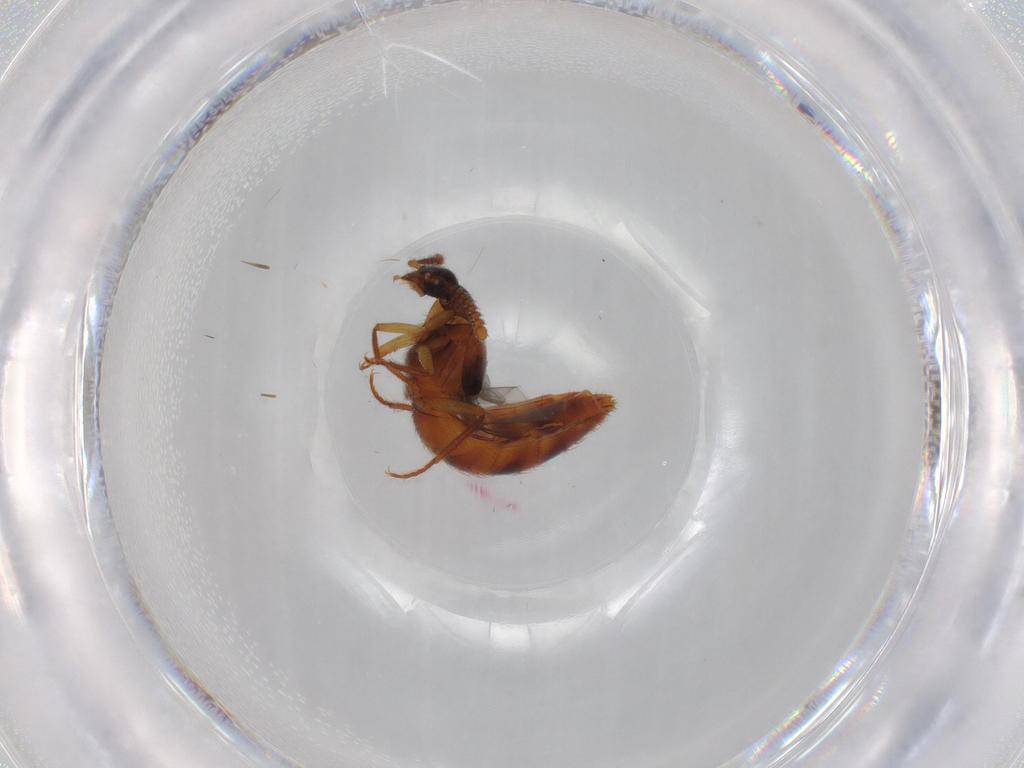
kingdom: Animalia
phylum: Arthropoda
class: Insecta
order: Coleoptera
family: Staphylinidae
